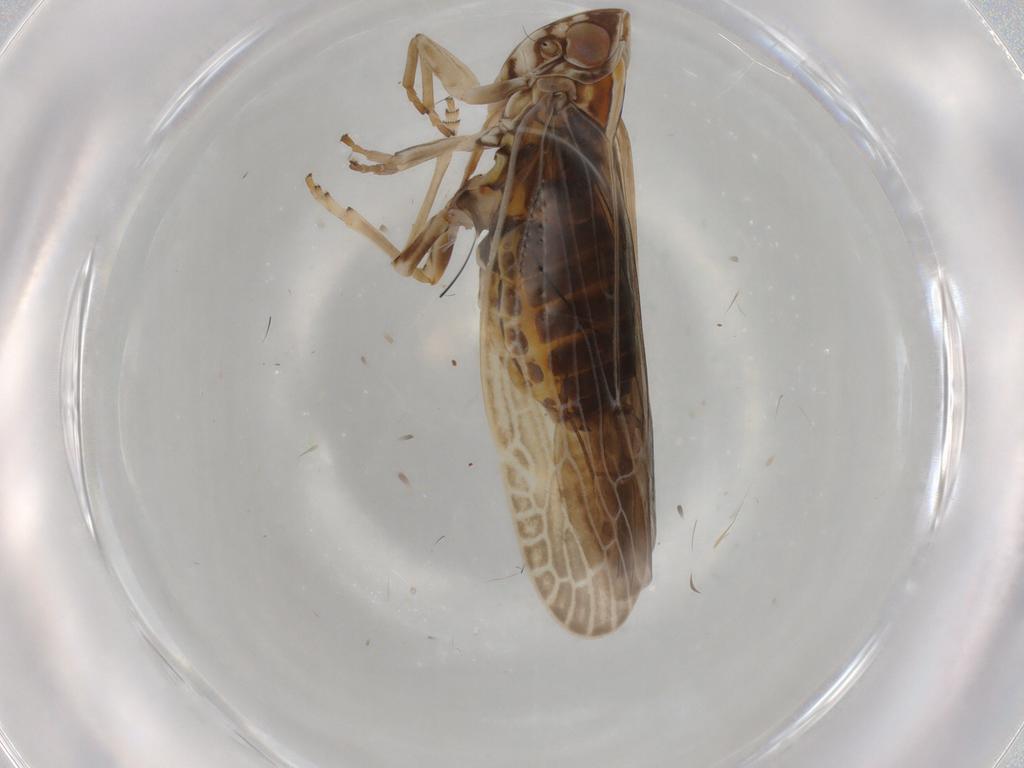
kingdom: Animalia
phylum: Arthropoda
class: Insecta
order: Hemiptera
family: Achilidae
